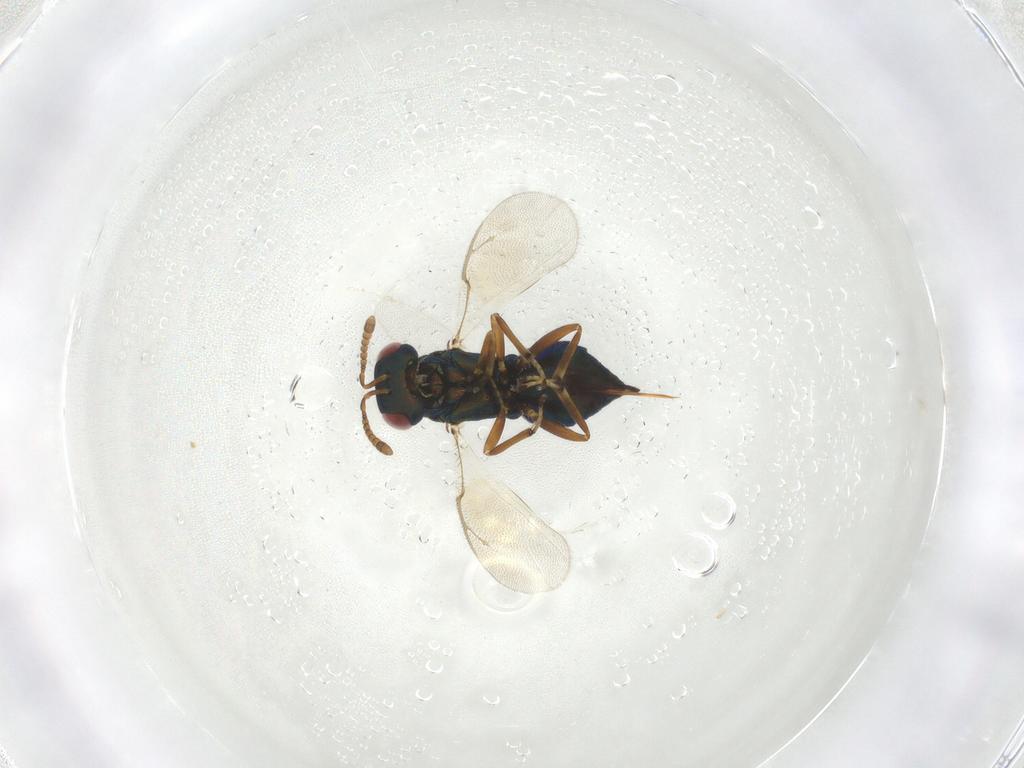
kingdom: Animalia
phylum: Arthropoda
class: Insecta
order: Hymenoptera
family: Pteromalidae
